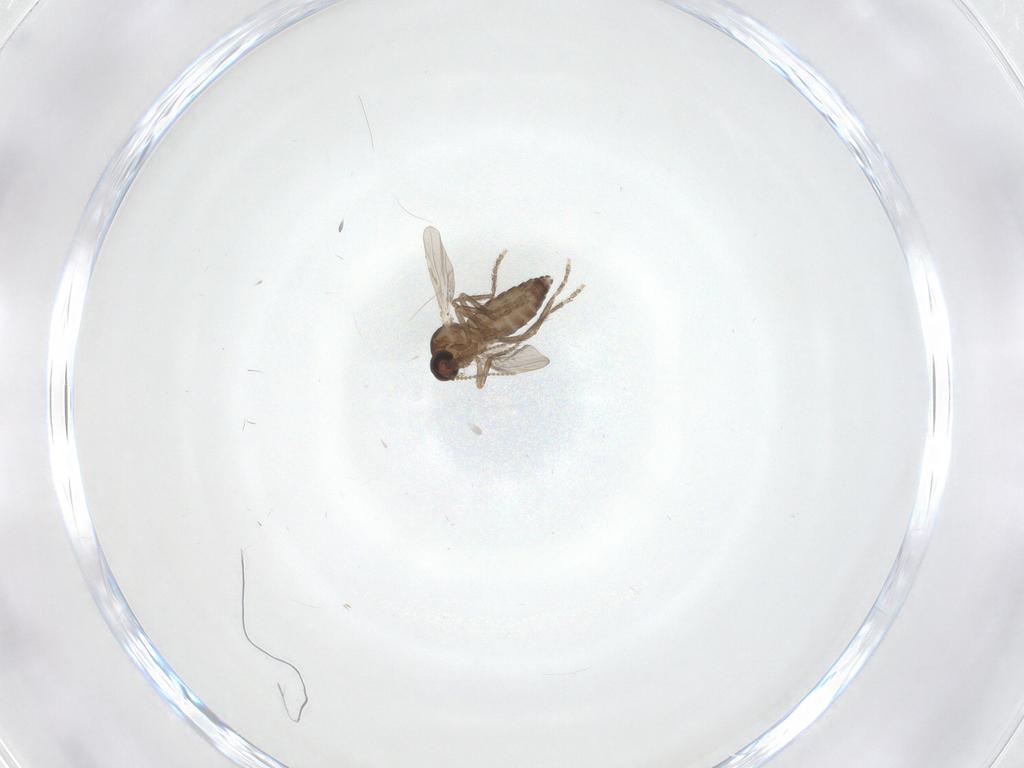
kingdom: Animalia
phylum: Arthropoda
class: Insecta
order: Diptera
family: Ceratopogonidae
